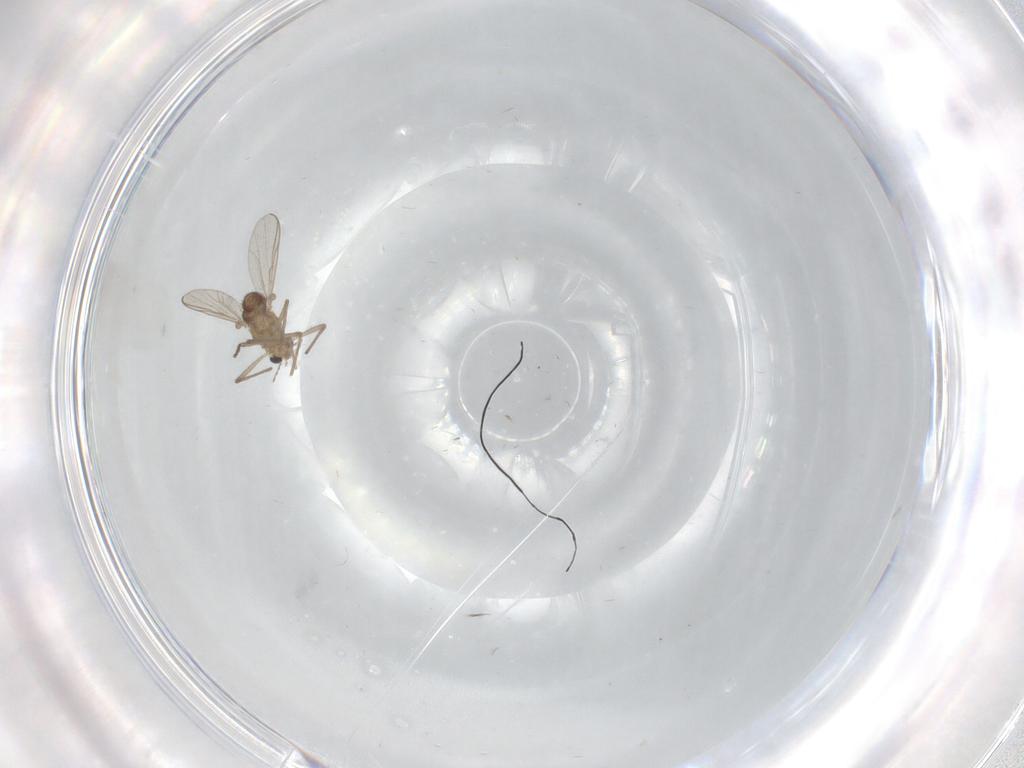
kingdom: Animalia
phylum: Arthropoda
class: Insecta
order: Diptera
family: Chironomidae
